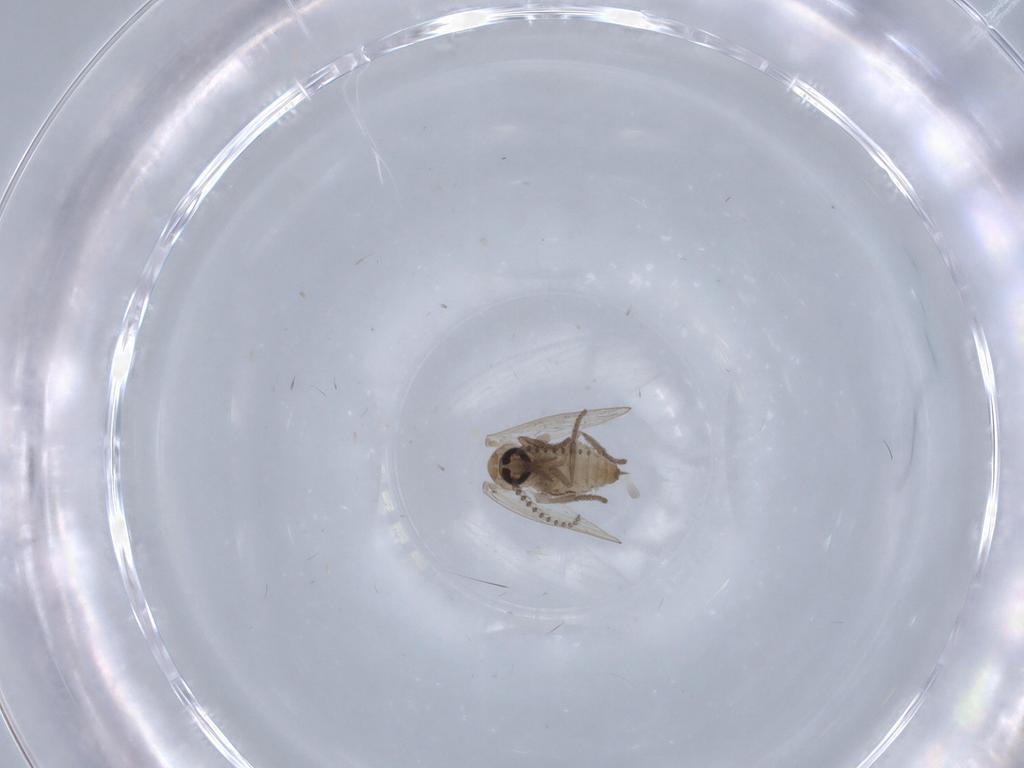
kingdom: Animalia
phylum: Arthropoda
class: Insecta
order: Diptera
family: Psychodidae
